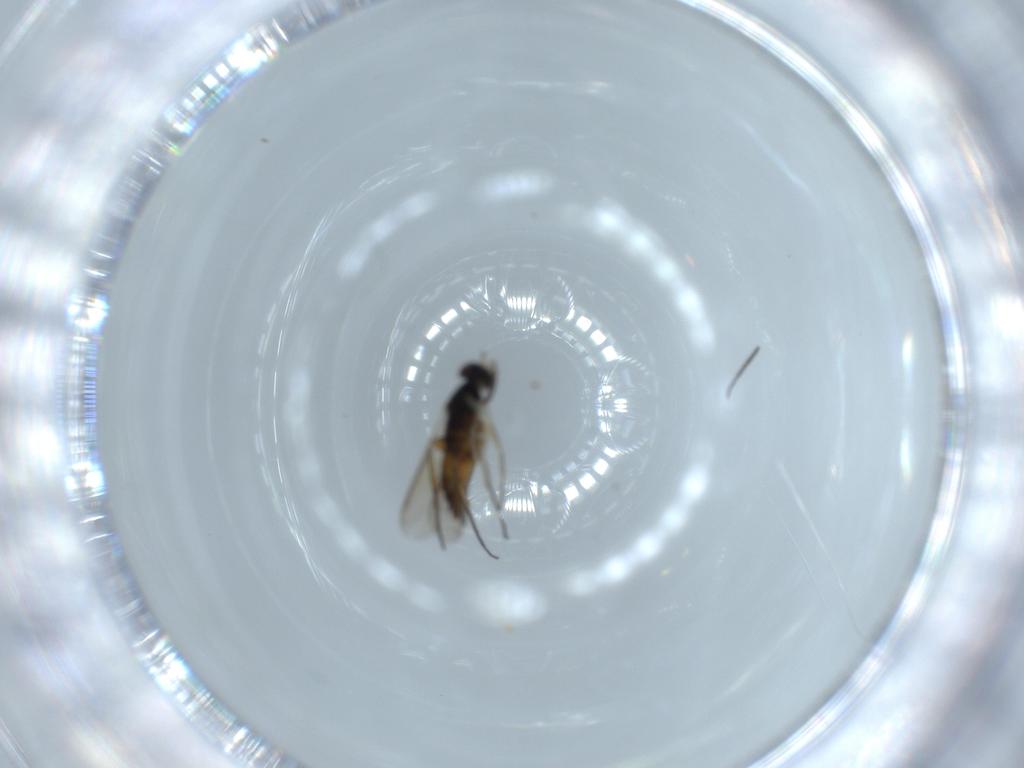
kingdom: Animalia
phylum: Arthropoda
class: Insecta
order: Hymenoptera
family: Eulophidae
